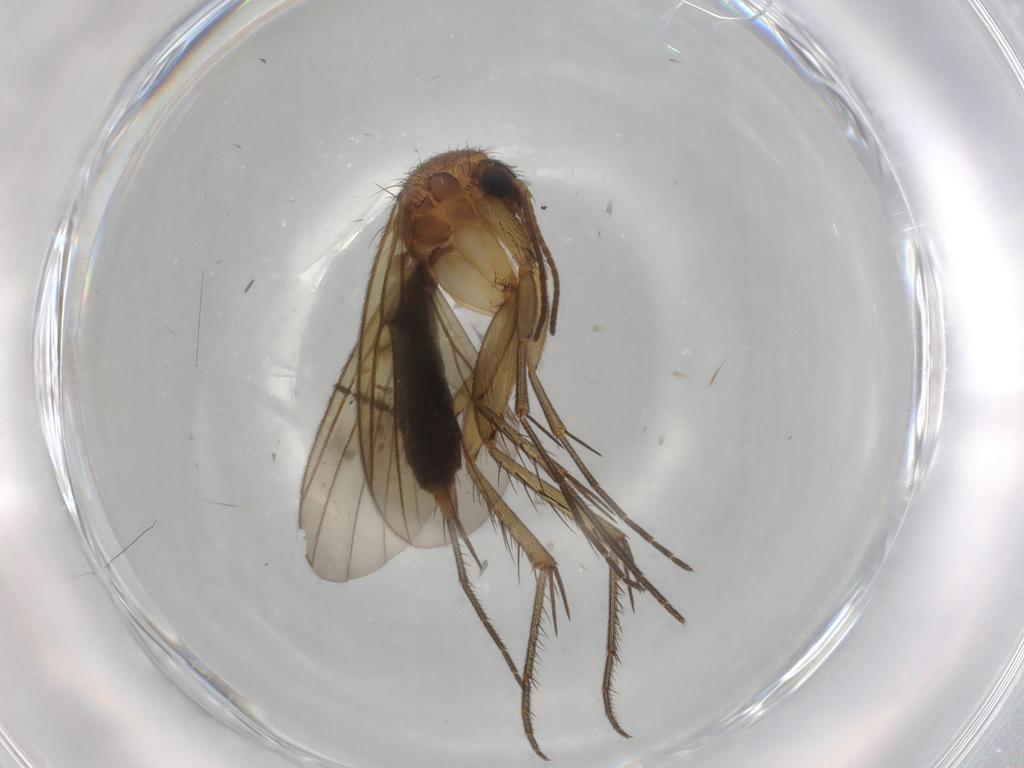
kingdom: Animalia
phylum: Arthropoda
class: Insecta
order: Diptera
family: Mycetophilidae
